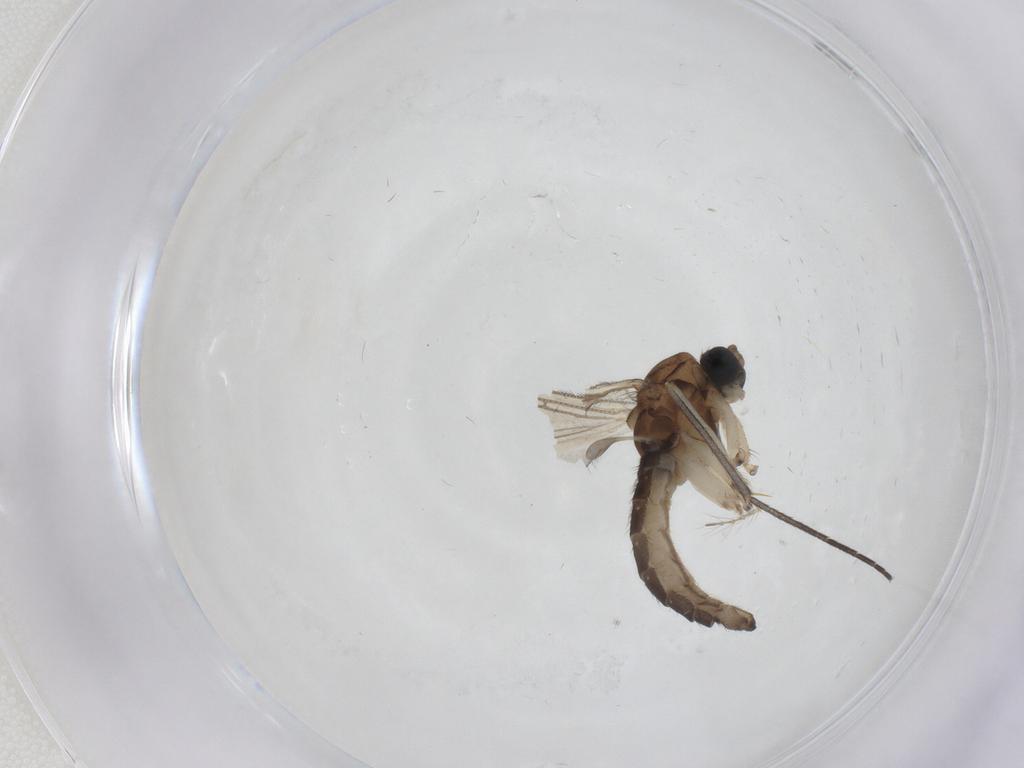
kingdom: Animalia
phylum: Arthropoda
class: Insecta
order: Diptera
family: Sciaridae
